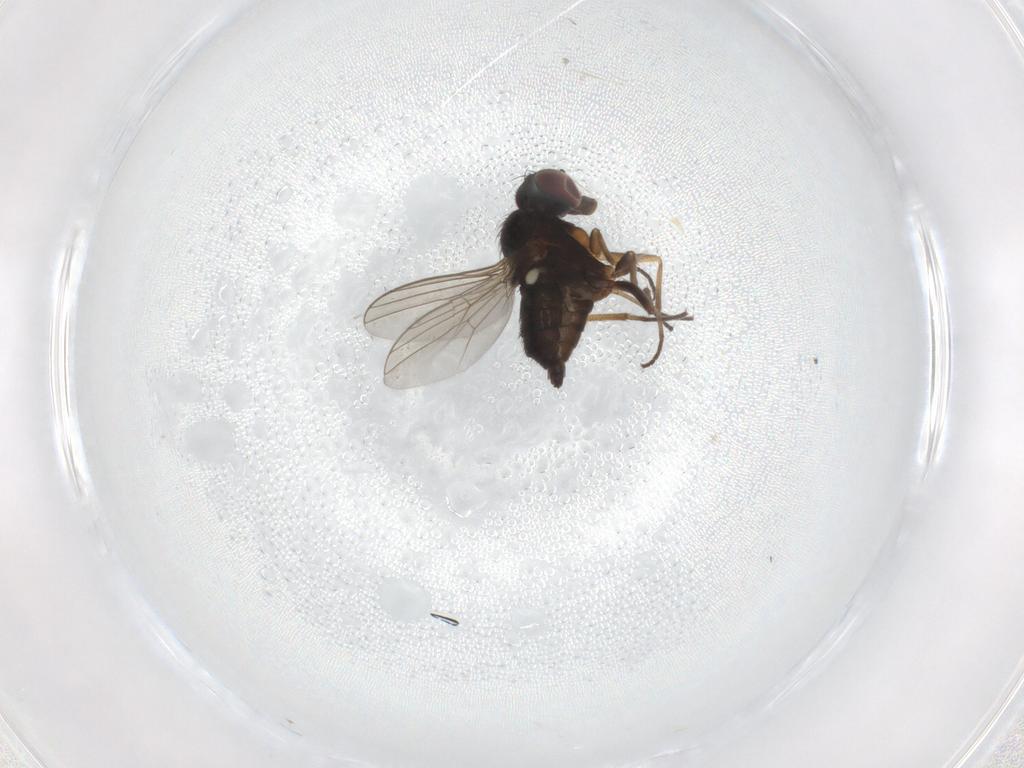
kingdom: Animalia
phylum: Arthropoda
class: Insecta
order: Diptera
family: Dolichopodidae
